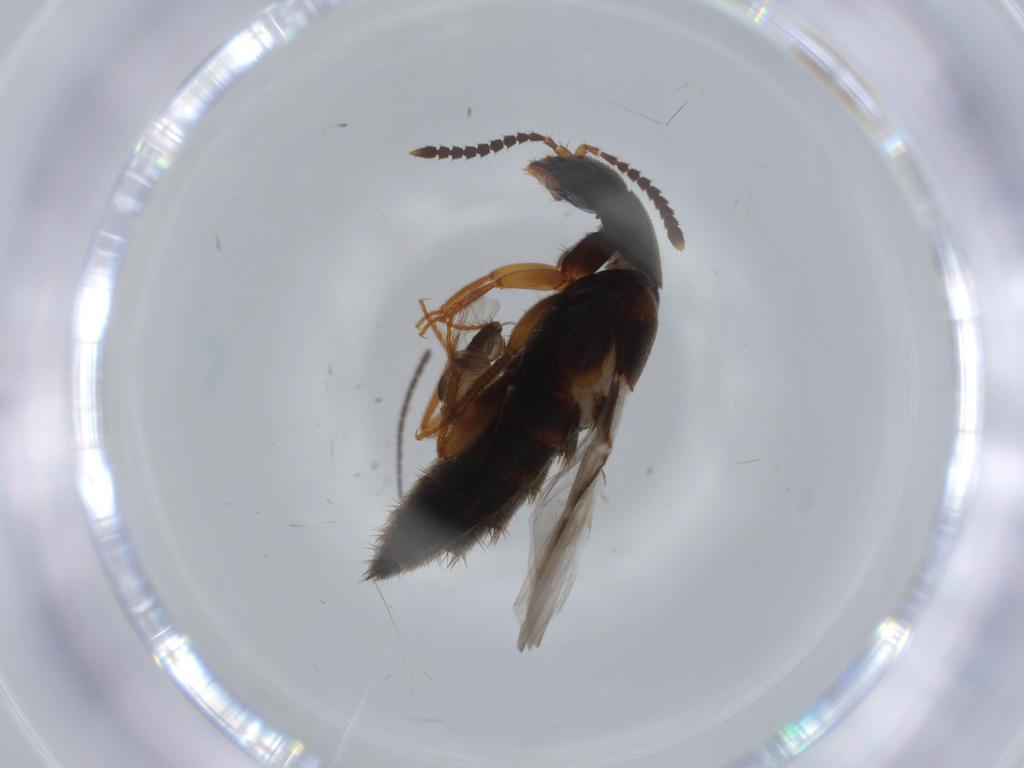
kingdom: Animalia
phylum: Arthropoda
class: Insecta
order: Diptera
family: Phoridae
